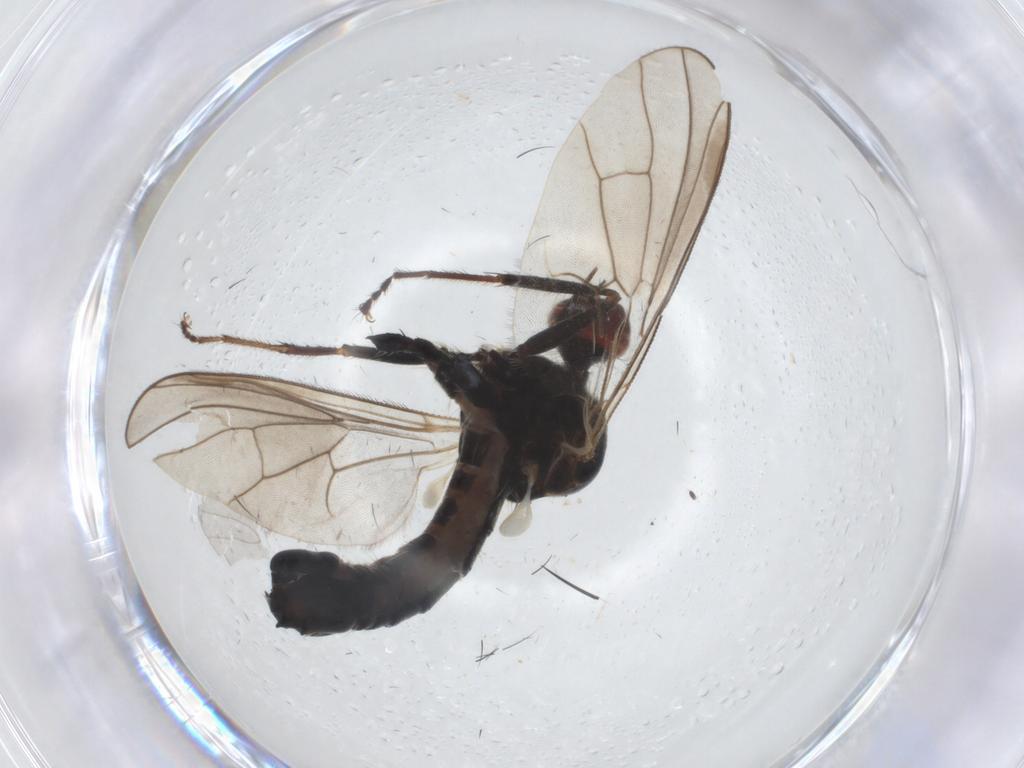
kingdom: Animalia
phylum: Arthropoda
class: Insecta
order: Diptera
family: Hybotidae
